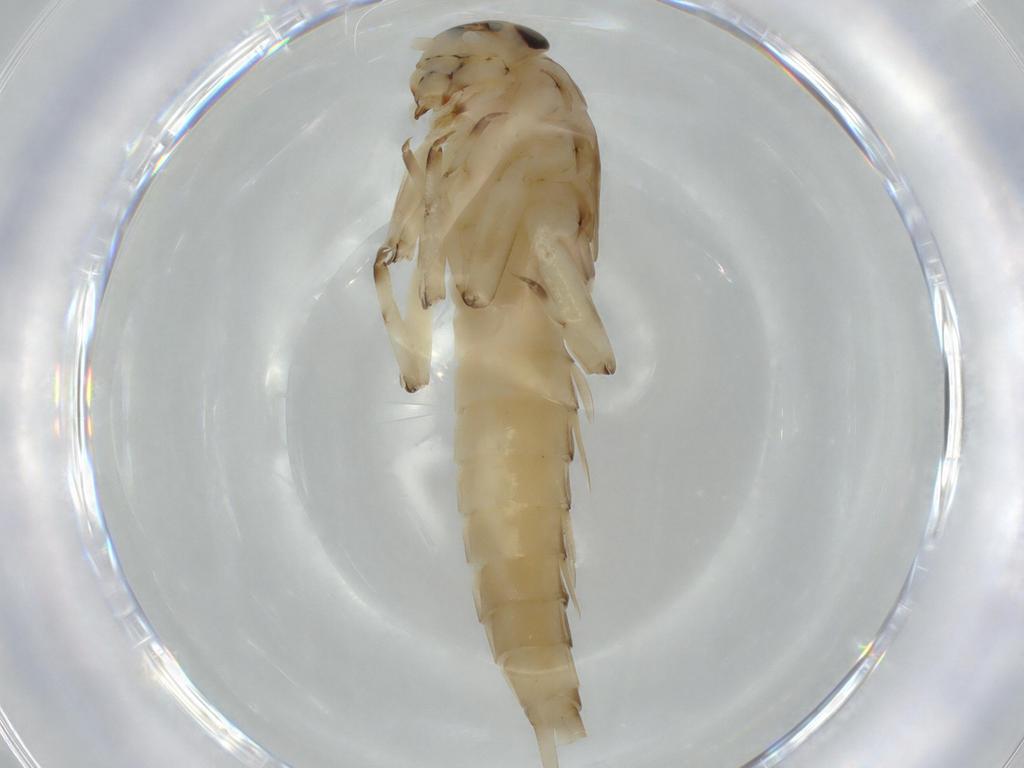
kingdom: Animalia
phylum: Arthropoda
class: Insecta
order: Ephemeroptera
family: Baetidae
